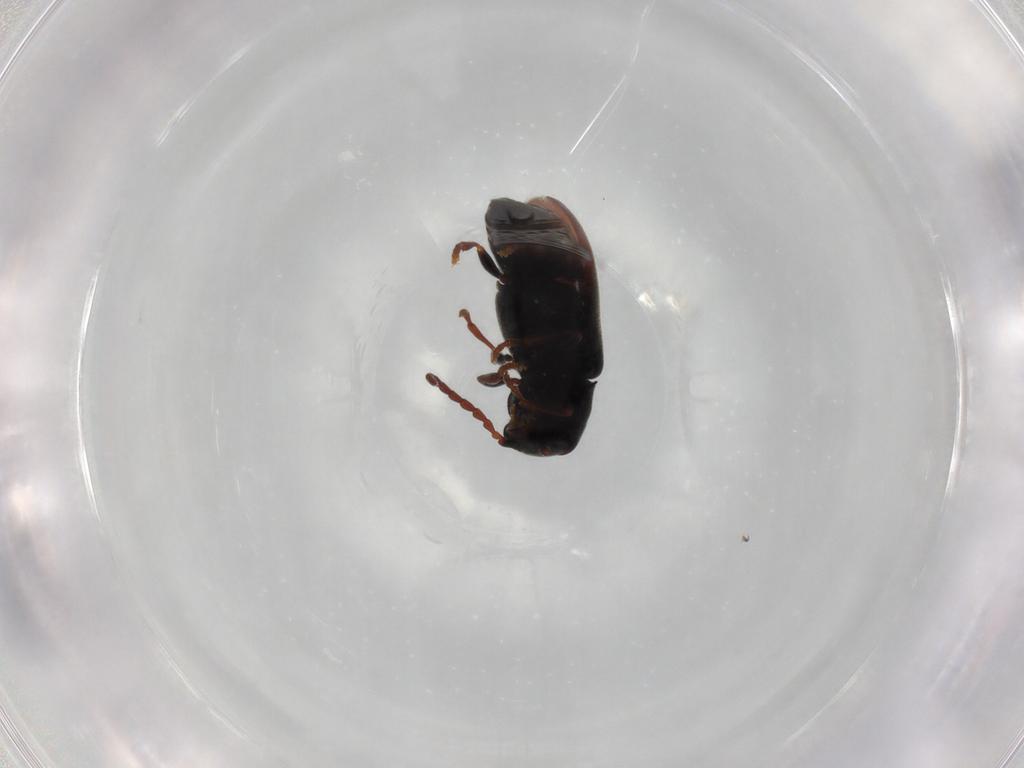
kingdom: Animalia
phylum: Arthropoda
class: Insecta
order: Coleoptera
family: Ptinidae
